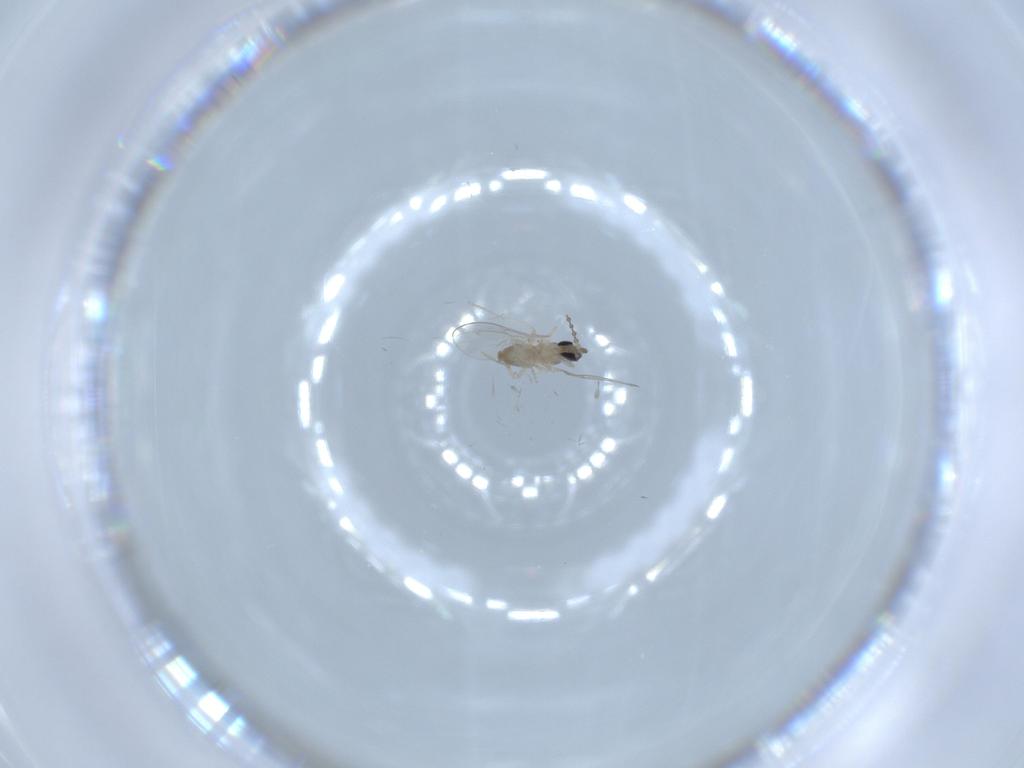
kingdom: Animalia
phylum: Arthropoda
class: Insecta
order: Diptera
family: Cecidomyiidae
